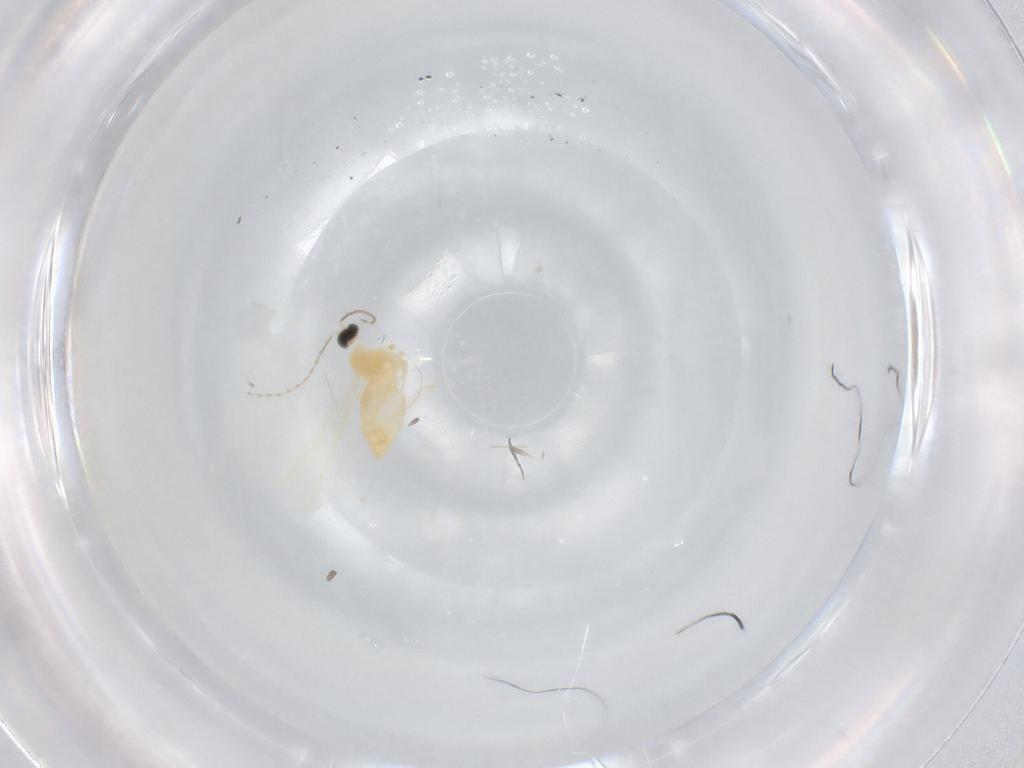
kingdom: Animalia
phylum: Arthropoda
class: Insecta
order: Diptera
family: Cecidomyiidae
